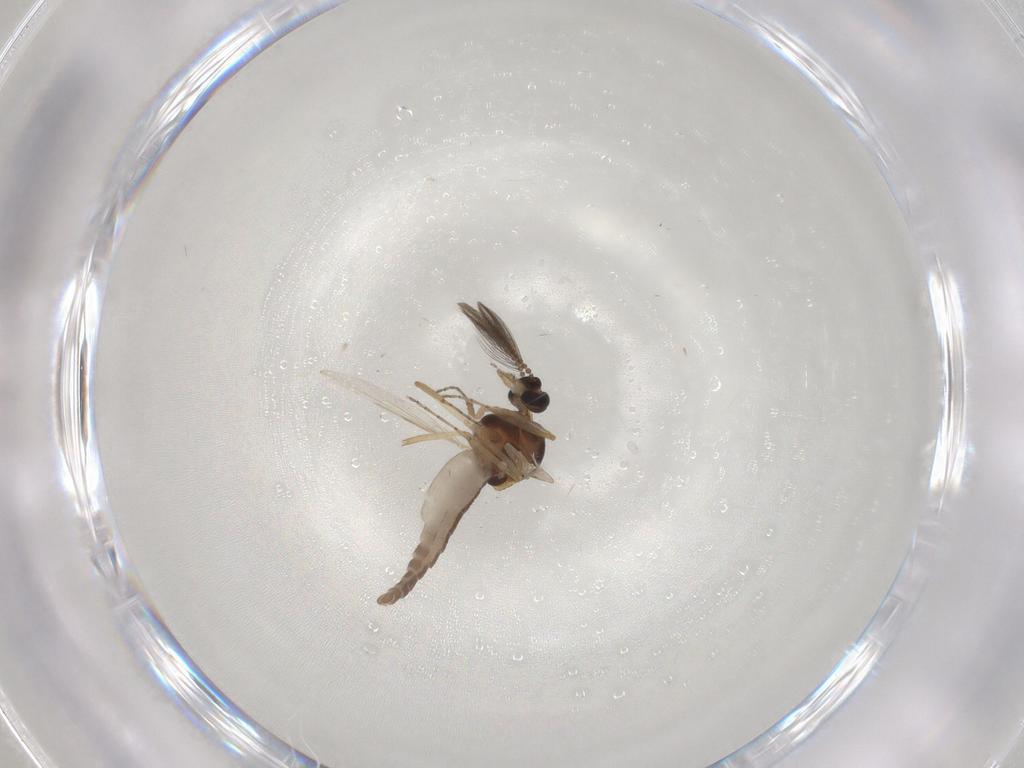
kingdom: Animalia
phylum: Arthropoda
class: Insecta
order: Diptera
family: Ceratopogonidae
